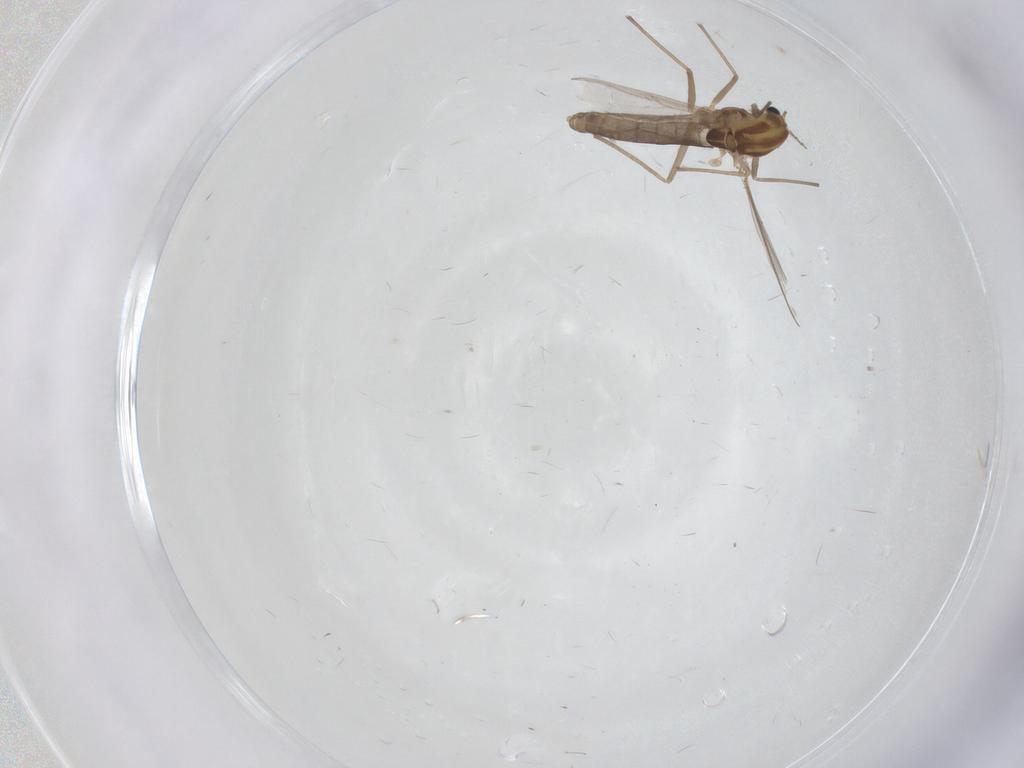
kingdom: Animalia
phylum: Arthropoda
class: Insecta
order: Diptera
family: Chironomidae
